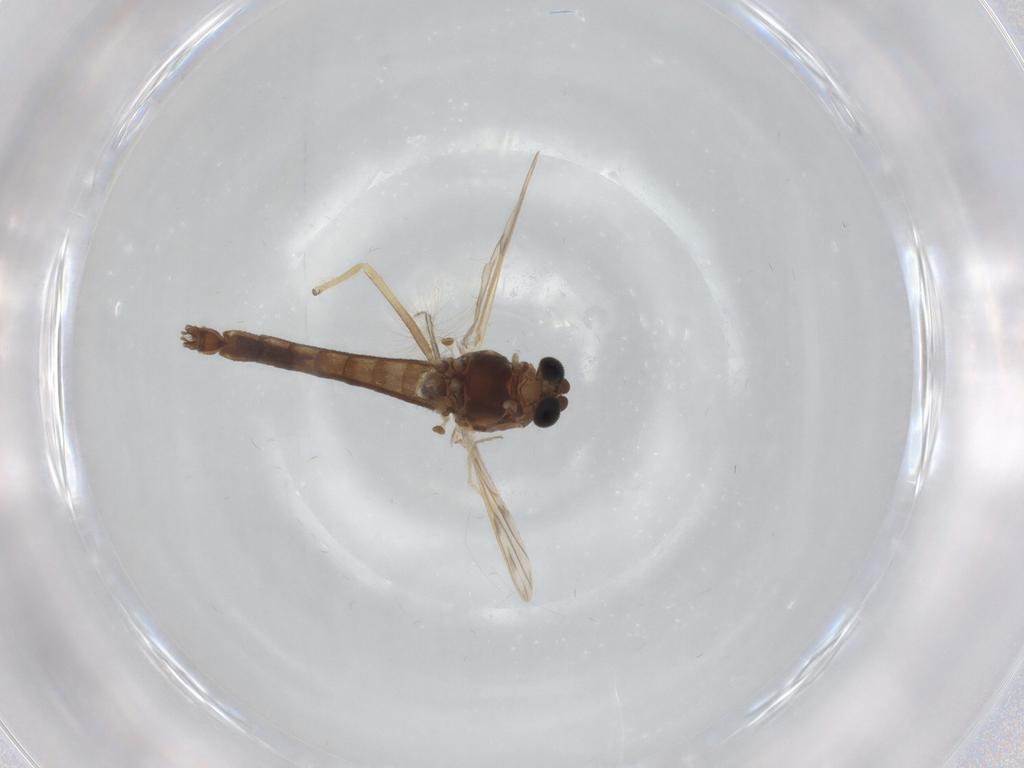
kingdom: Animalia
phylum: Arthropoda
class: Insecta
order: Diptera
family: Chironomidae
